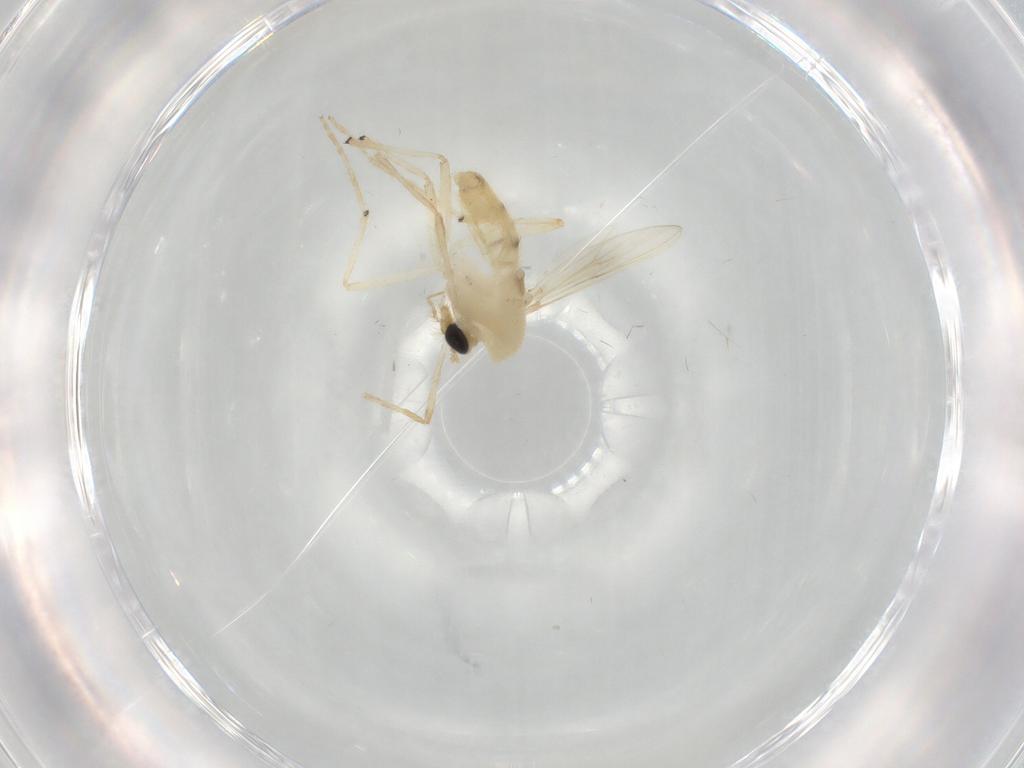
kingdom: Animalia
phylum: Arthropoda
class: Insecta
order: Diptera
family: Chironomidae
